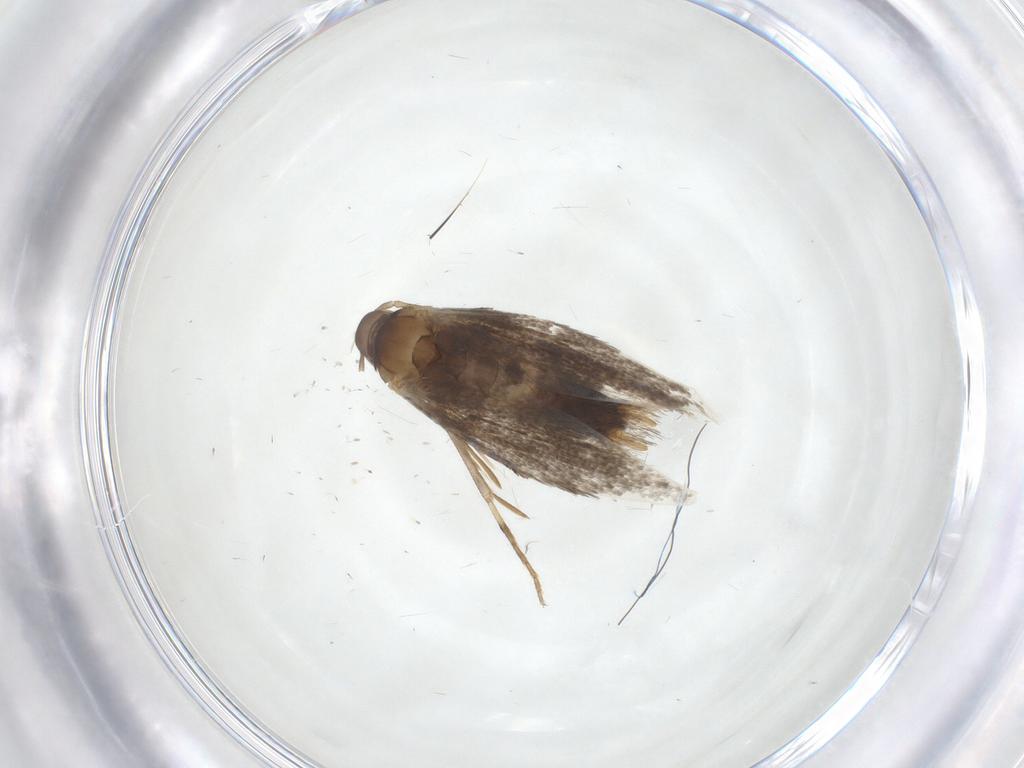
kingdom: Animalia
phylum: Arthropoda
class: Insecta
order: Lepidoptera
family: Elachistidae
